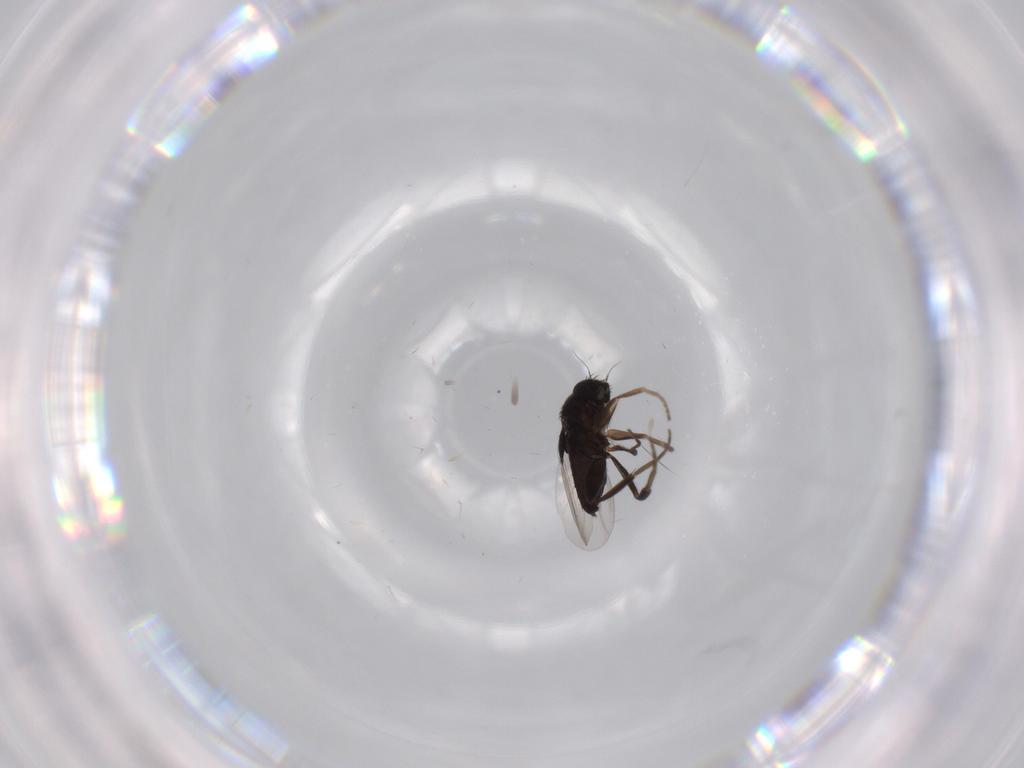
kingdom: Animalia
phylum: Arthropoda
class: Insecta
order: Diptera
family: Phoridae
